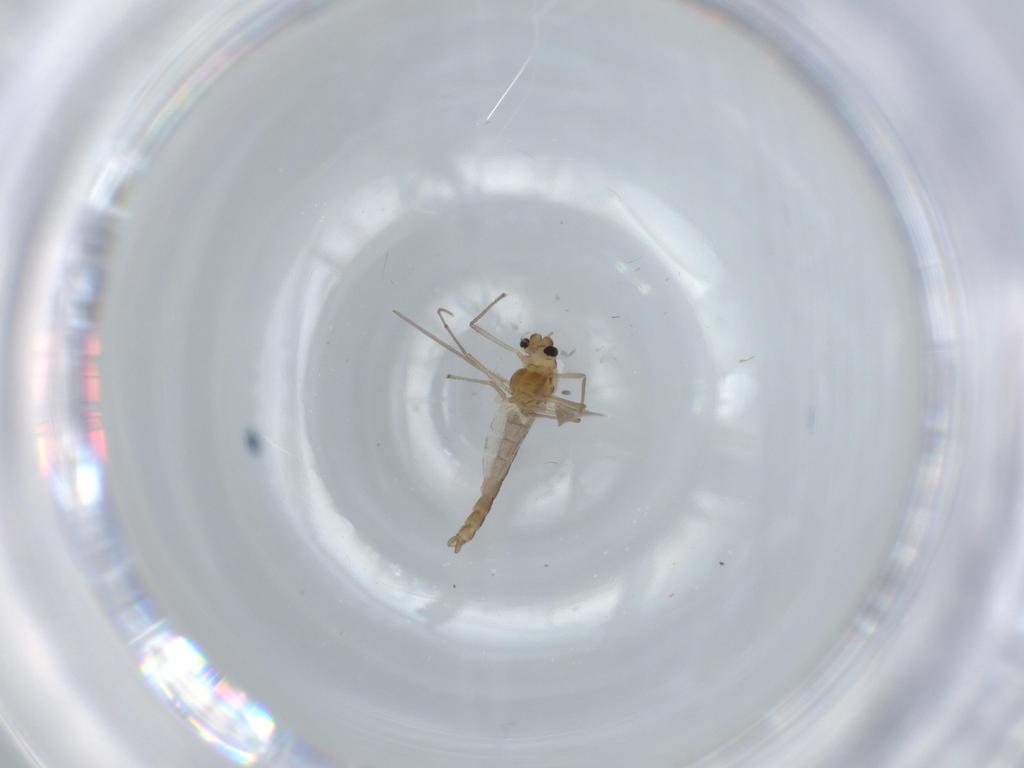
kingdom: Animalia
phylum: Arthropoda
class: Insecta
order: Diptera
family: Chironomidae
